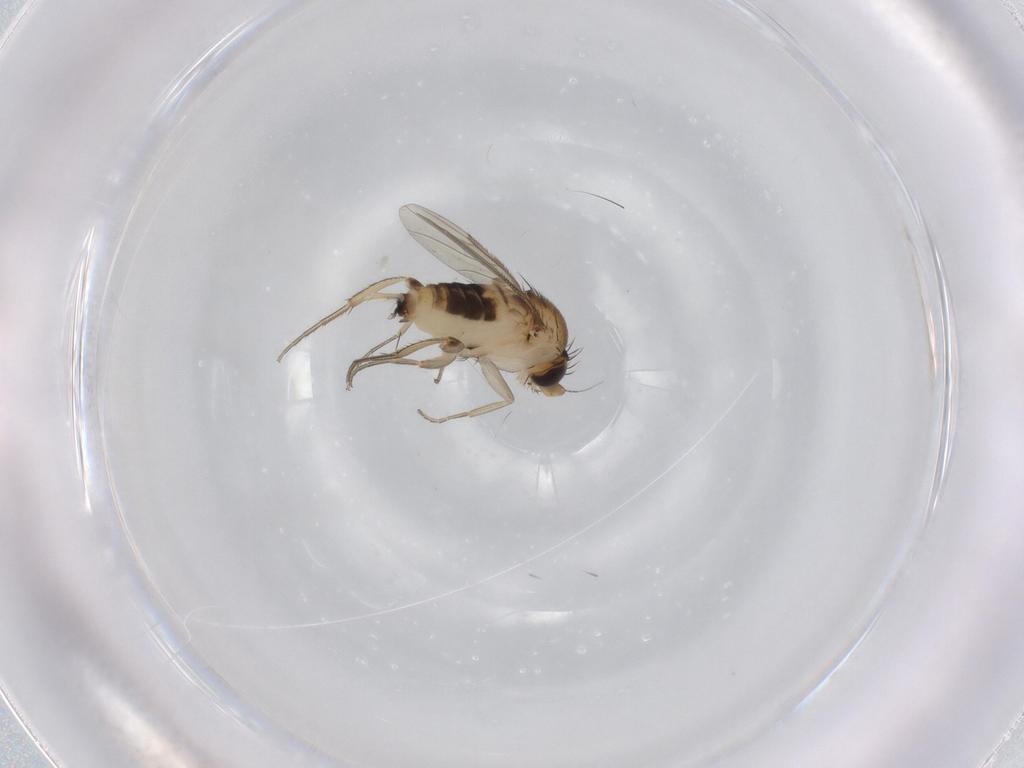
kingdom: Animalia
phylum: Arthropoda
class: Insecta
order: Diptera
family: Phoridae
